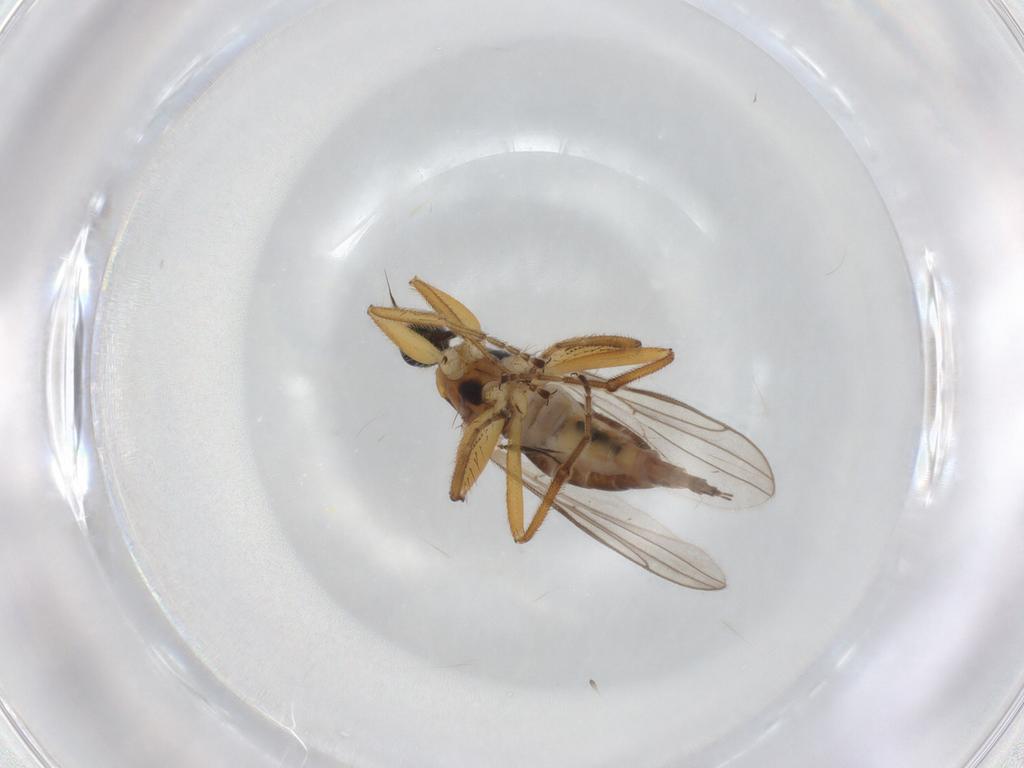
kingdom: Animalia
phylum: Arthropoda
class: Insecta
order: Diptera
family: Hybotidae
